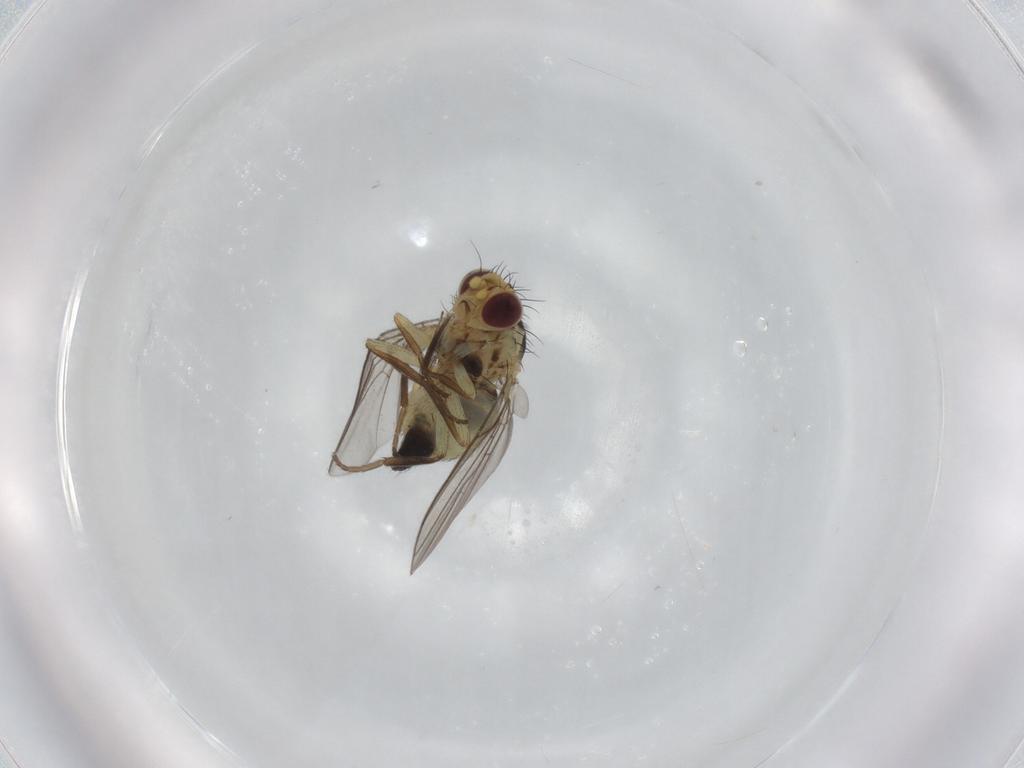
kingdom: Animalia
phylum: Arthropoda
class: Insecta
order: Diptera
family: Agromyzidae
